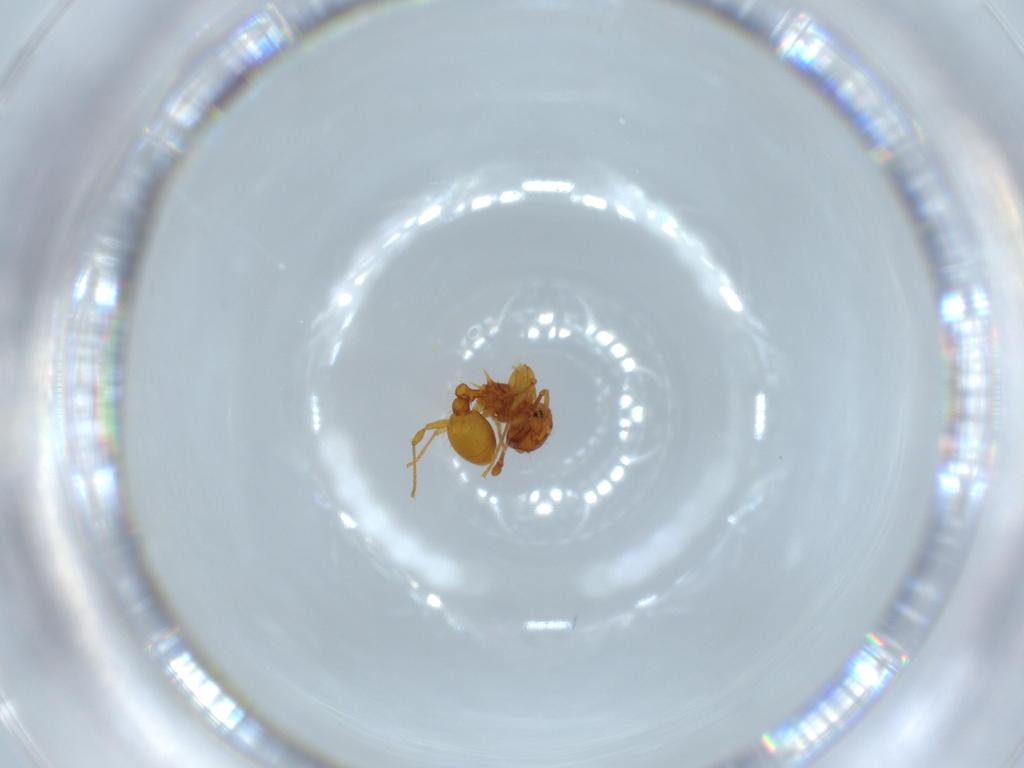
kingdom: Animalia
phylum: Arthropoda
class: Insecta
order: Hymenoptera
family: Formicidae
